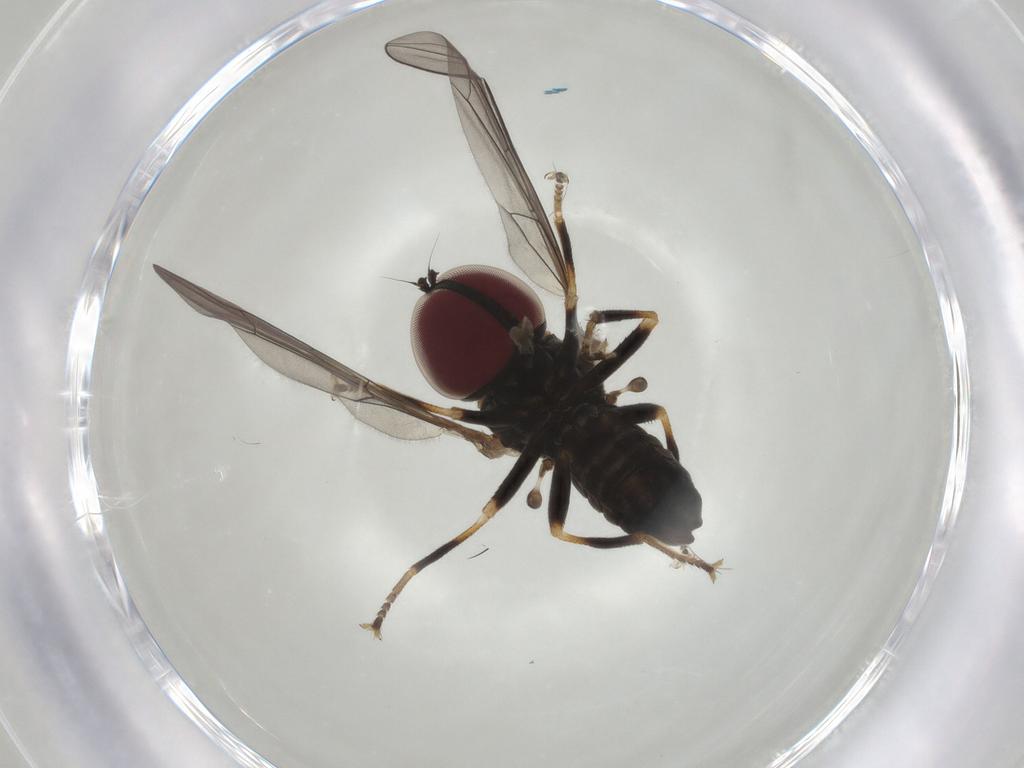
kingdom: Animalia
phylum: Arthropoda
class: Insecta
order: Diptera
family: Pipunculidae
